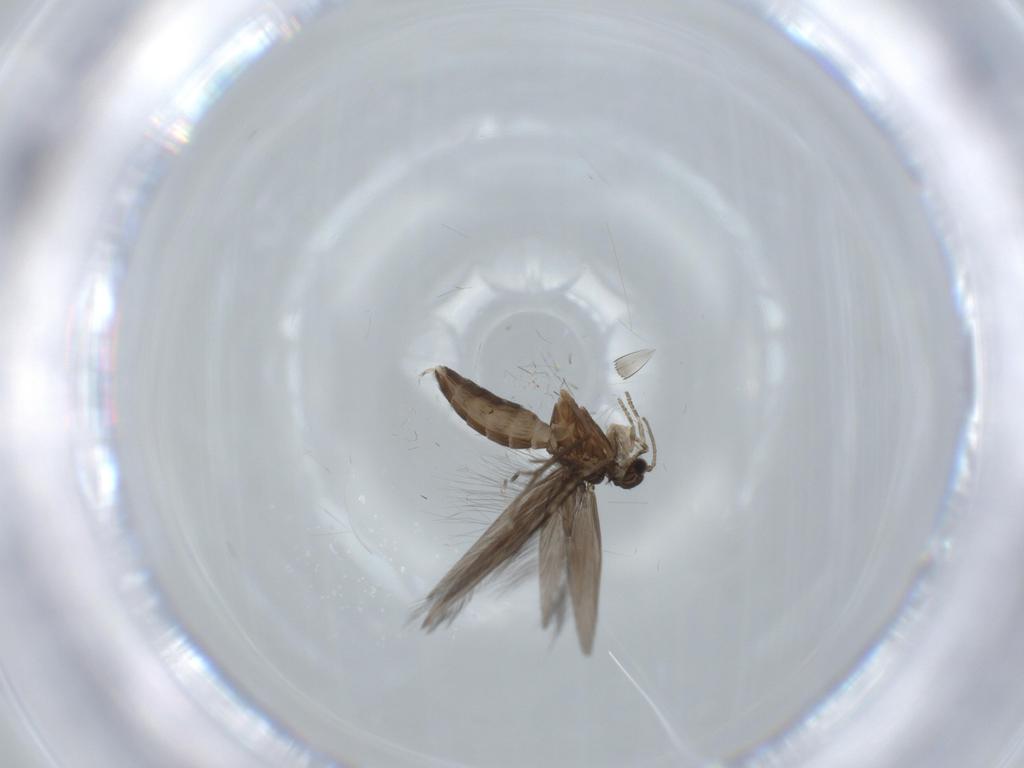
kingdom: Animalia
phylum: Arthropoda
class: Insecta
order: Trichoptera
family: Hydroptilidae
